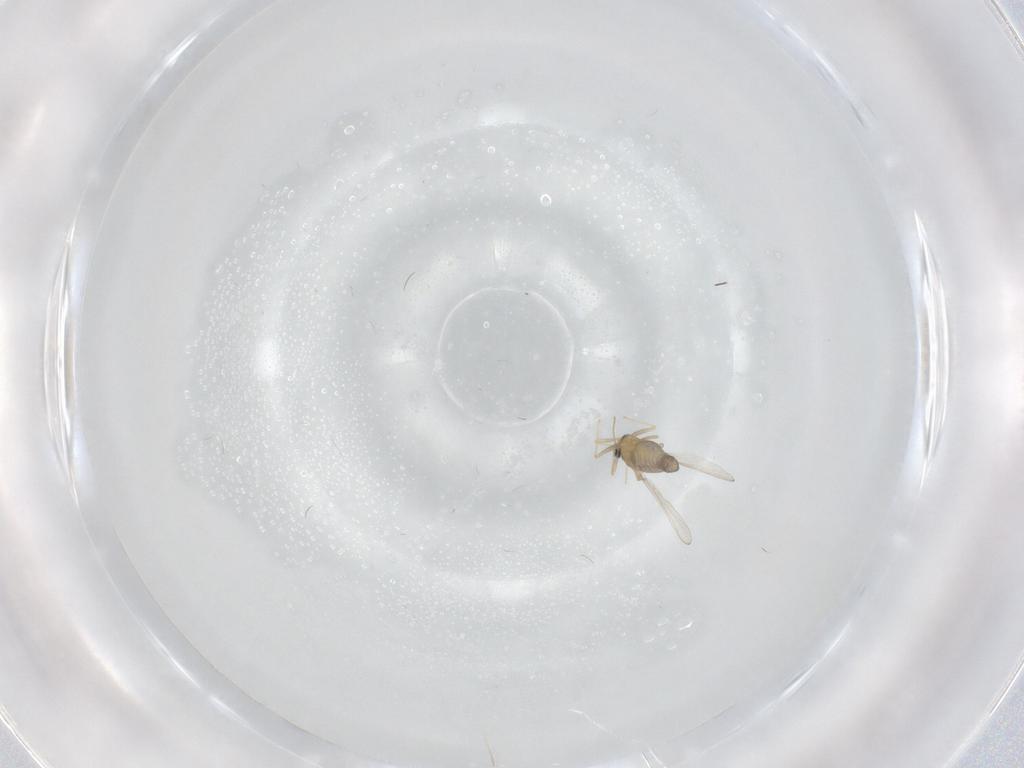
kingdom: Animalia
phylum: Arthropoda
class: Insecta
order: Diptera
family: Chironomidae
